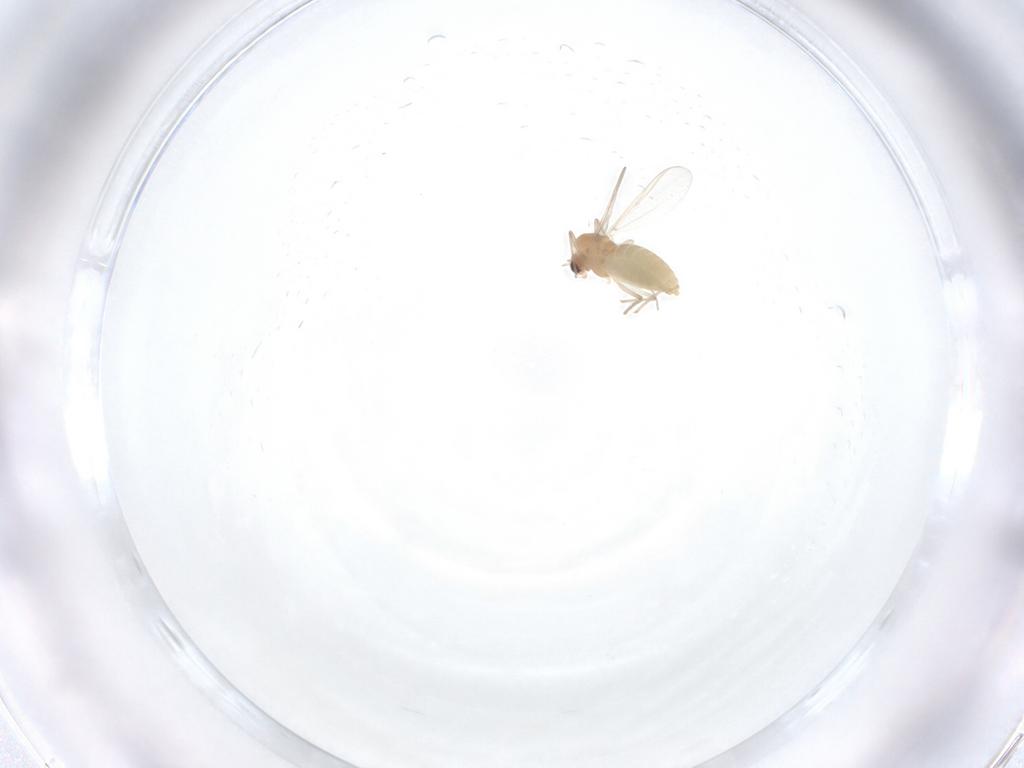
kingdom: Animalia
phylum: Arthropoda
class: Insecta
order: Diptera
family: Chironomidae
